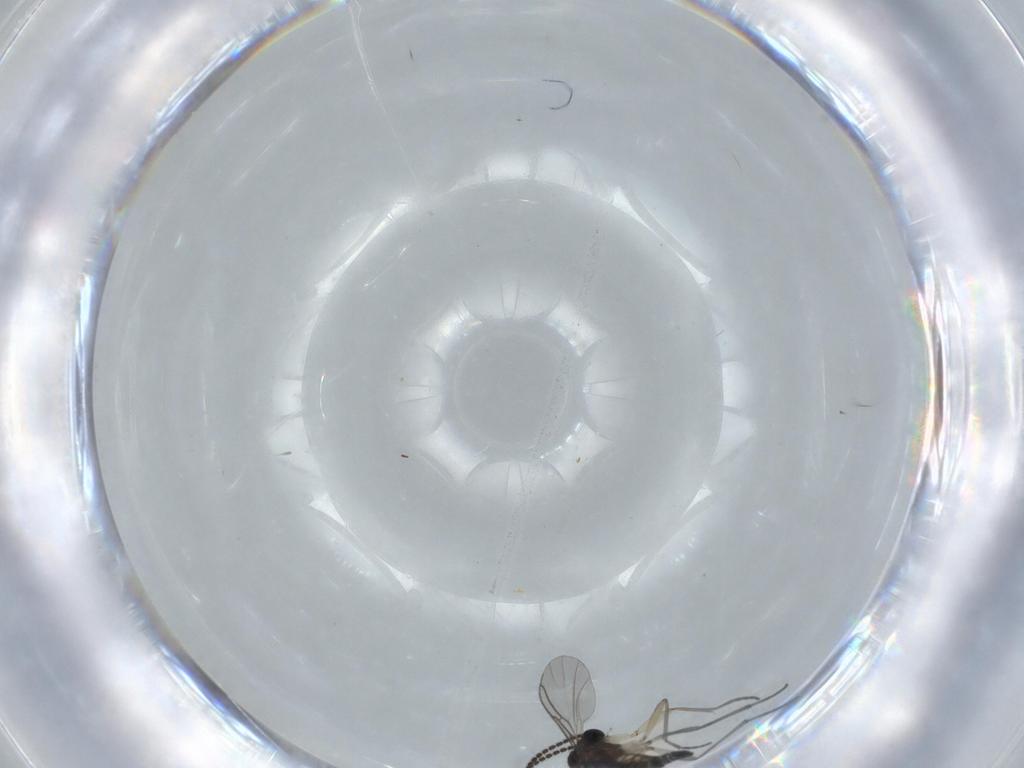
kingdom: Animalia
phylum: Arthropoda
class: Insecta
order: Diptera
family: Sciaridae
